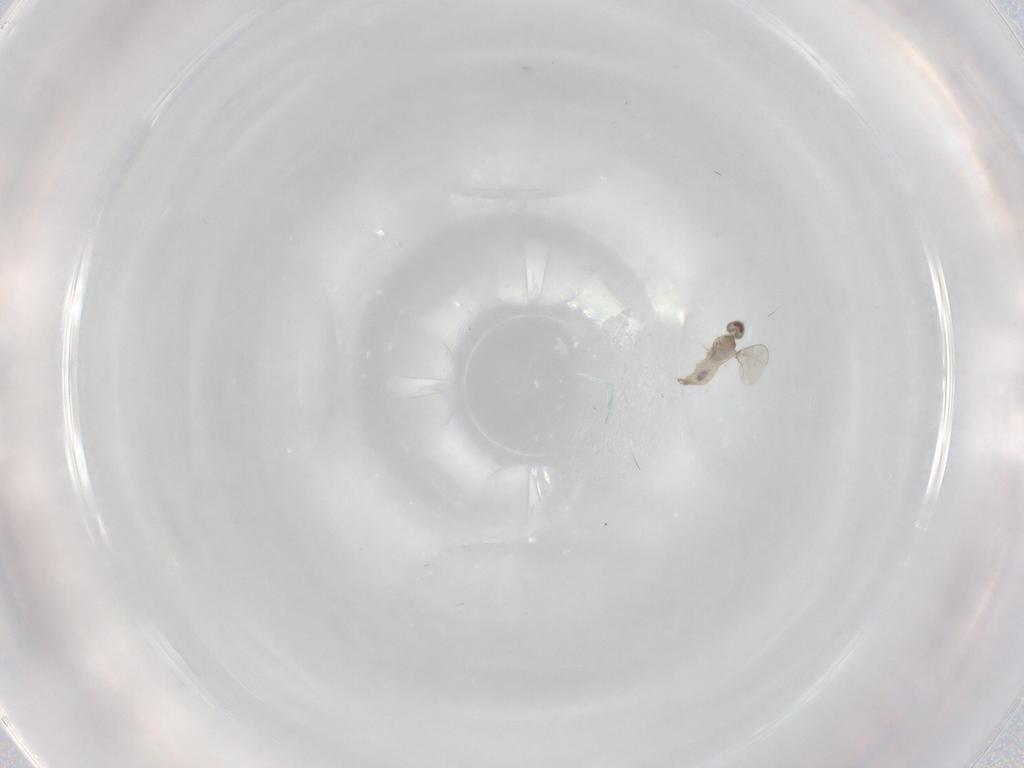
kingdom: Animalia
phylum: Arthropoda
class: Insecta
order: Diptera
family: Cecidomyiidae
